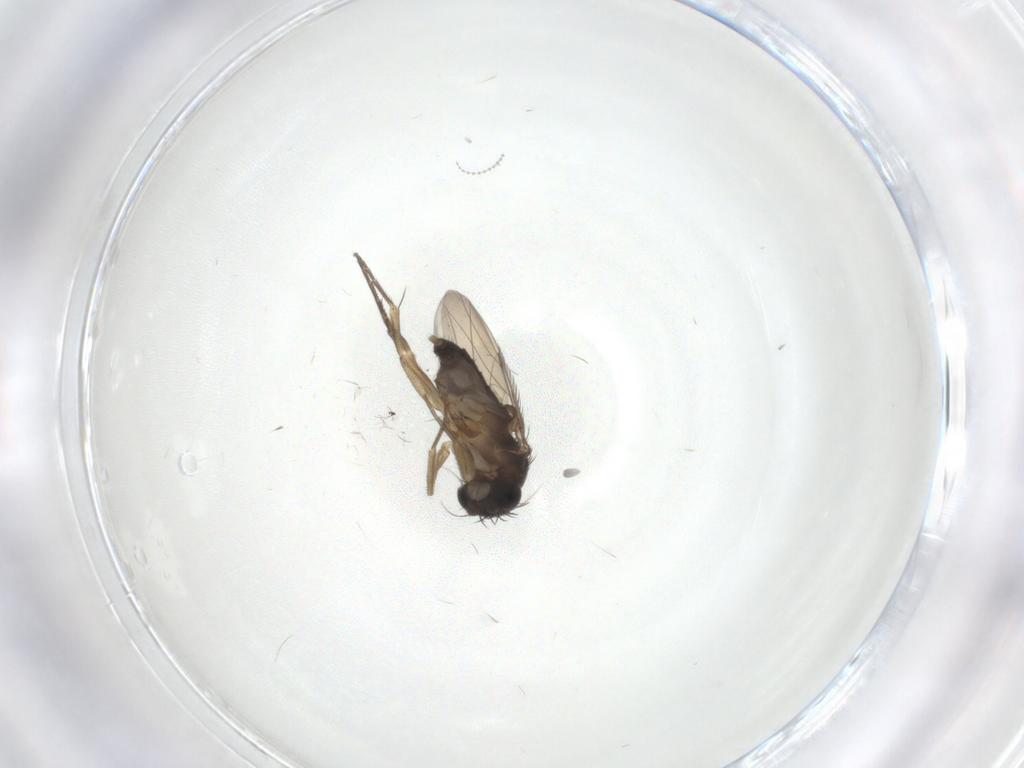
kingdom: Animalia
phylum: Arthropoda
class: Insecta
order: Diptera
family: Phoridae
